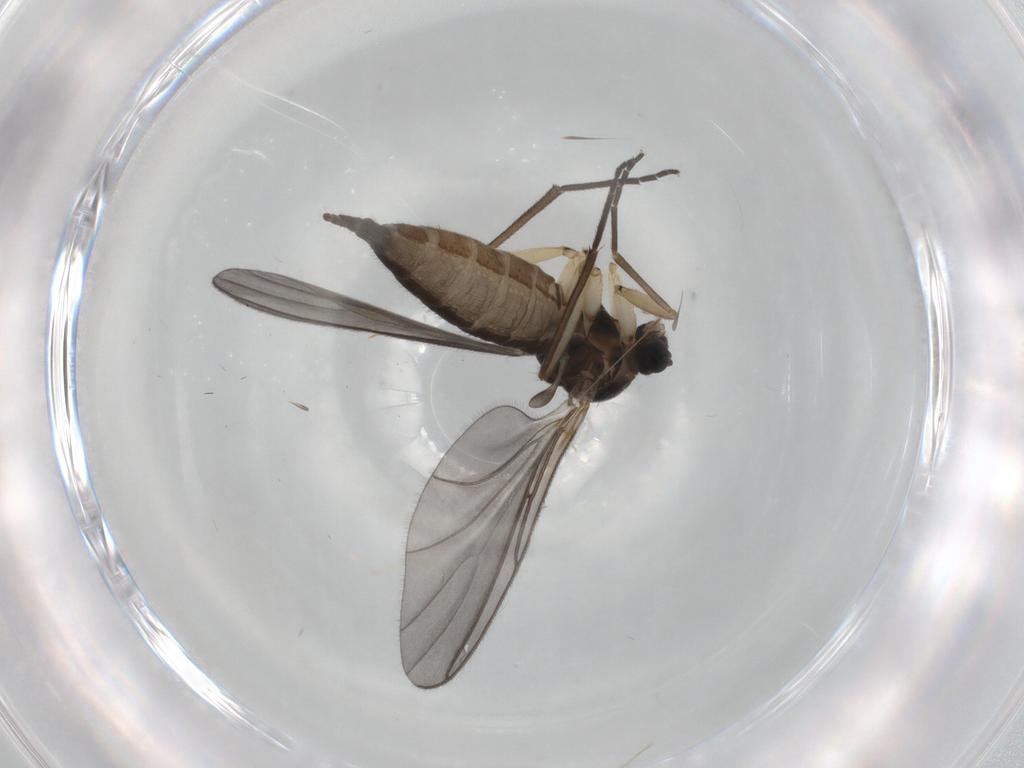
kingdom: Animalia
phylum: Arthropoda
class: Insecta
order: Diptera
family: Sciaridae
